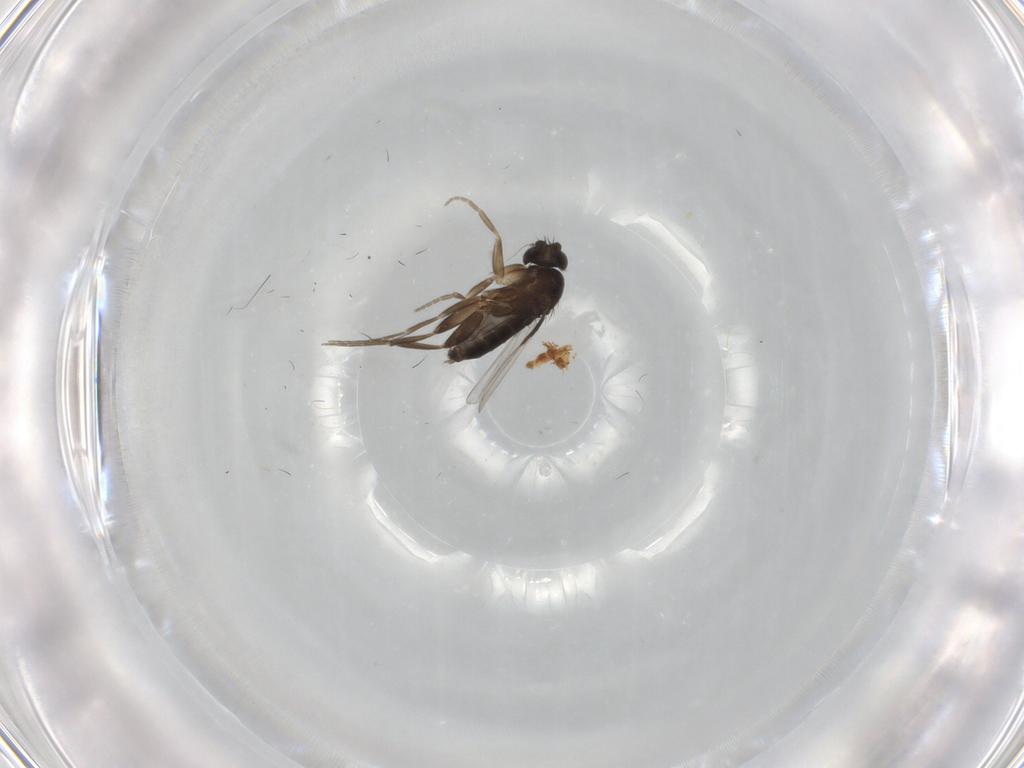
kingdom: Animalia
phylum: Arthropoda
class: Insecta
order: Diptera
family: Phoridae
